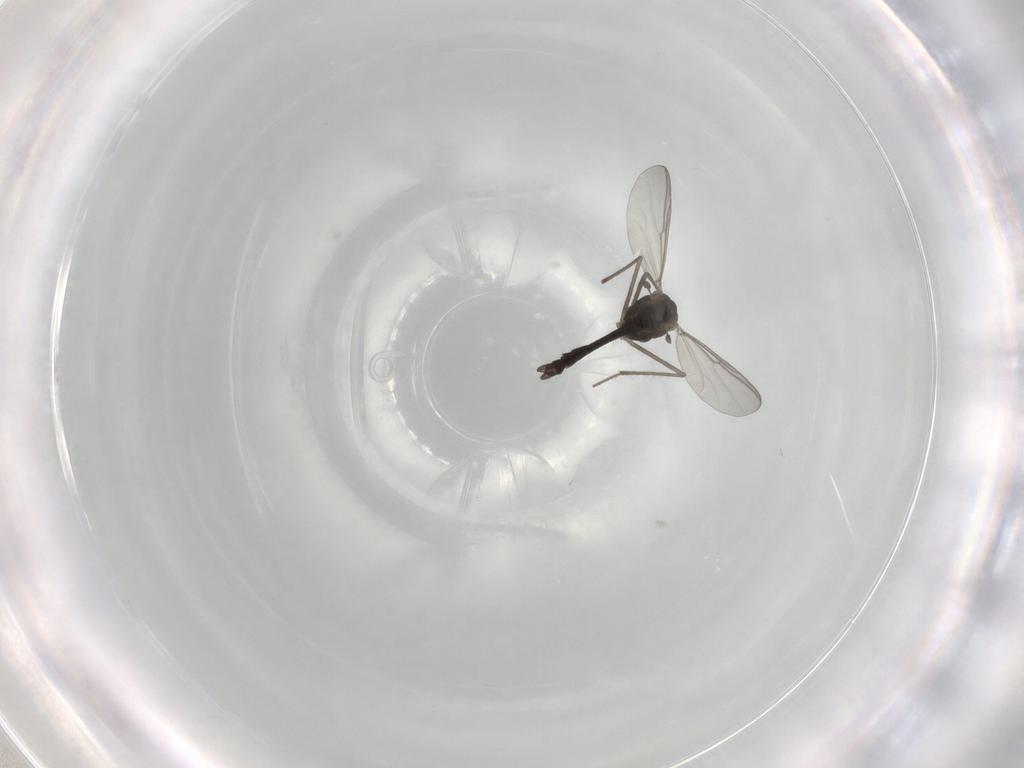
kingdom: Animalia
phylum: Arthropoda
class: Insecta
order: Diptera
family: Chironomidae
